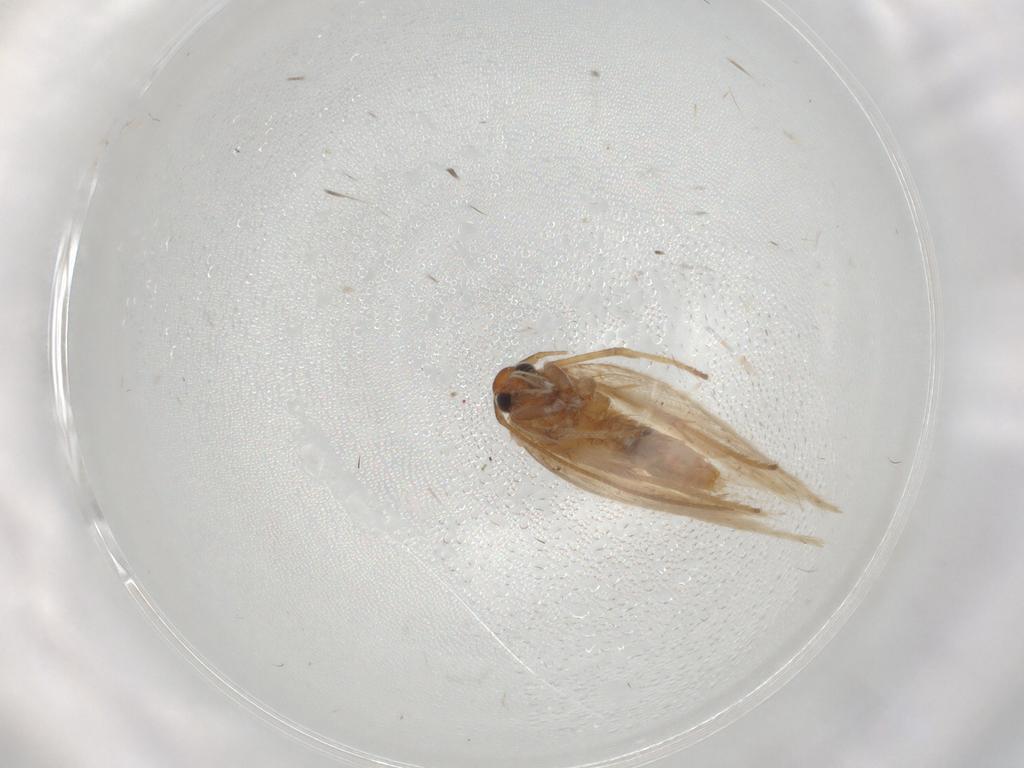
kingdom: Animalia
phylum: Arthropoda
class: Insecta
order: Lepidoptera
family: Gelechiidae
